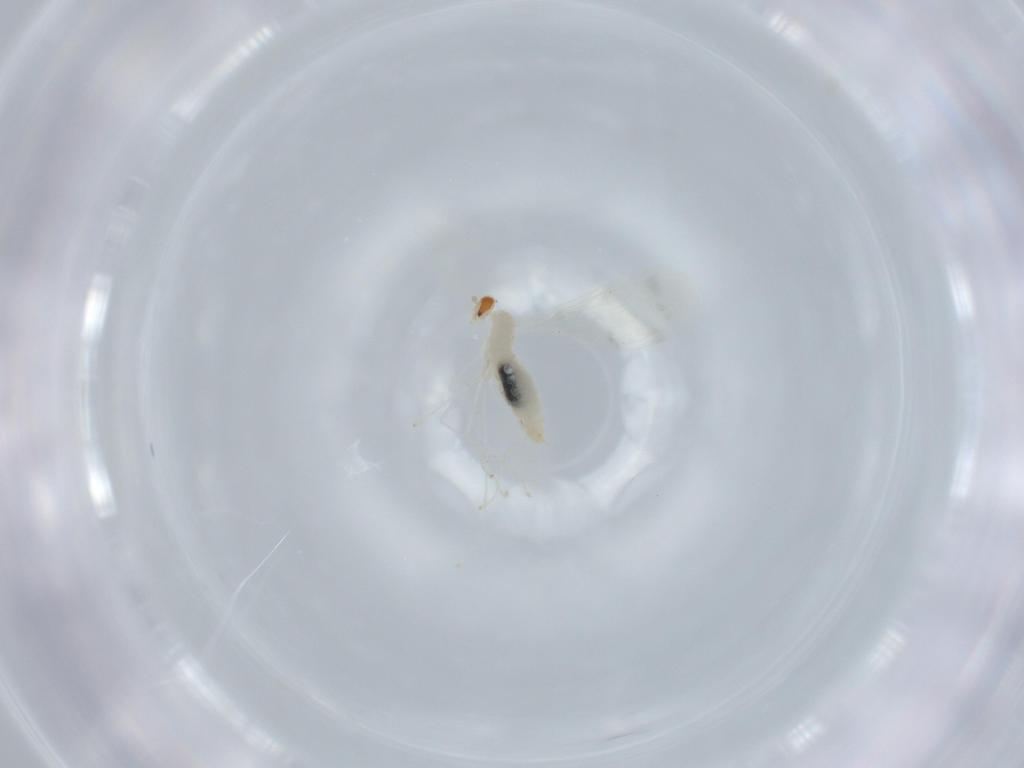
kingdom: Animalia
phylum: Arthropoda
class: Insecta
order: Diptera
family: Cecidomyiidae
